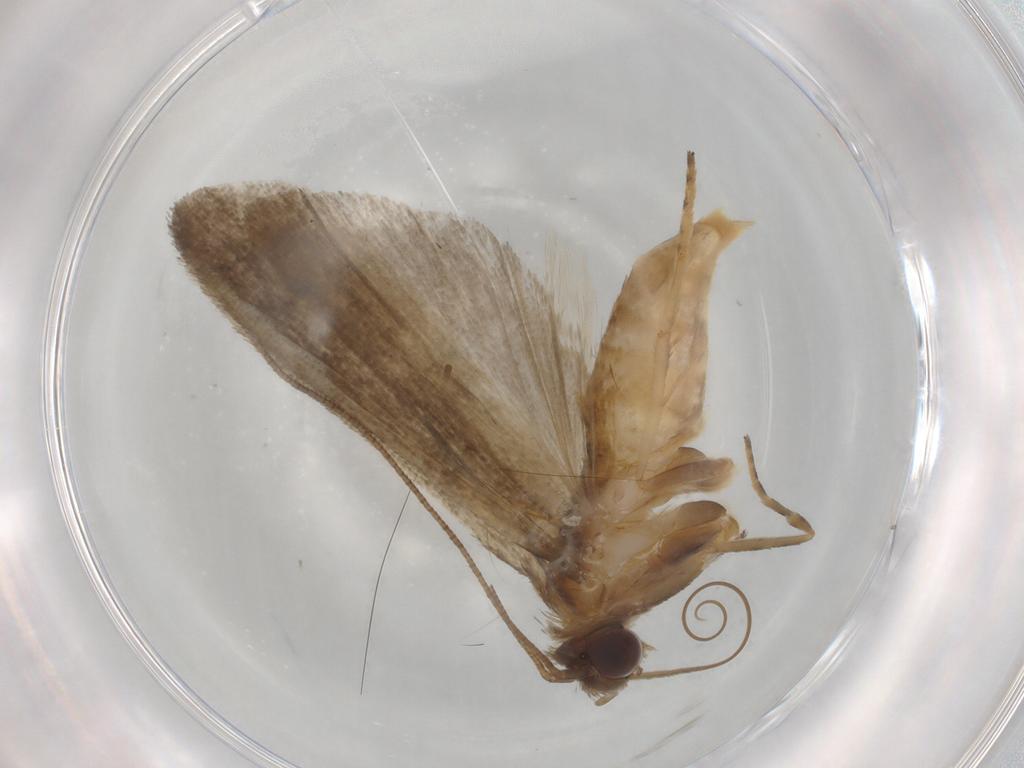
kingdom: Animalia
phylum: Arthropoda
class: Insecta
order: Lepidoptera
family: Noctuidae
